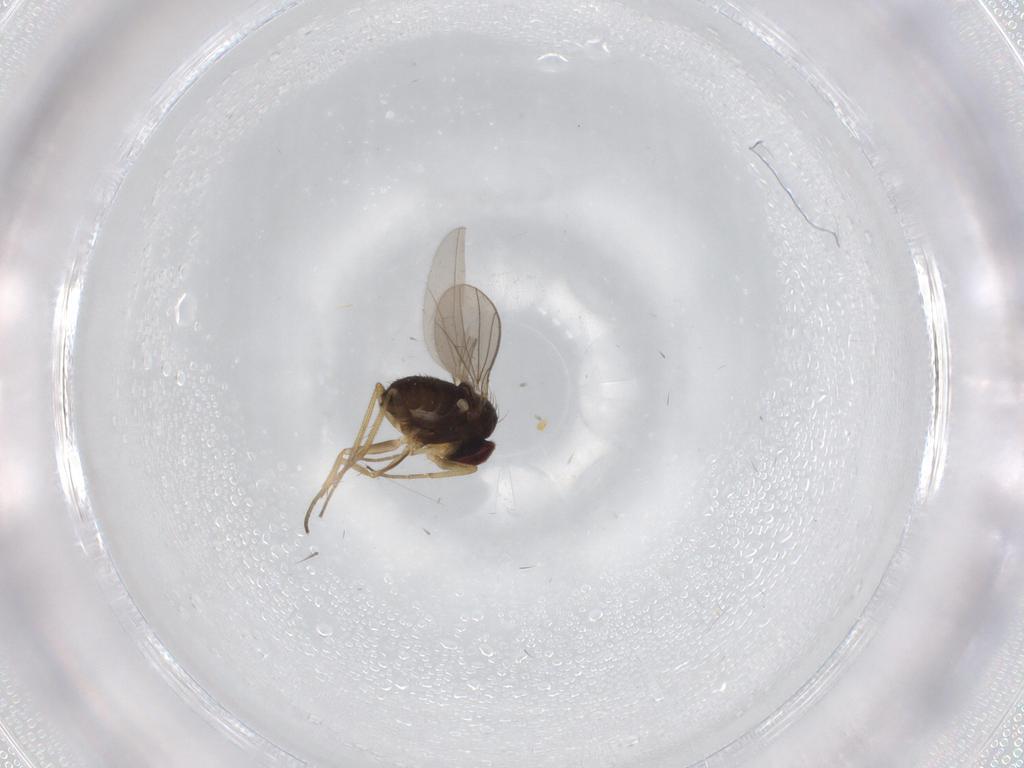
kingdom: Animalia
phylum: Arthropoda
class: Insecta
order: Diptera
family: Dolichopodidae
